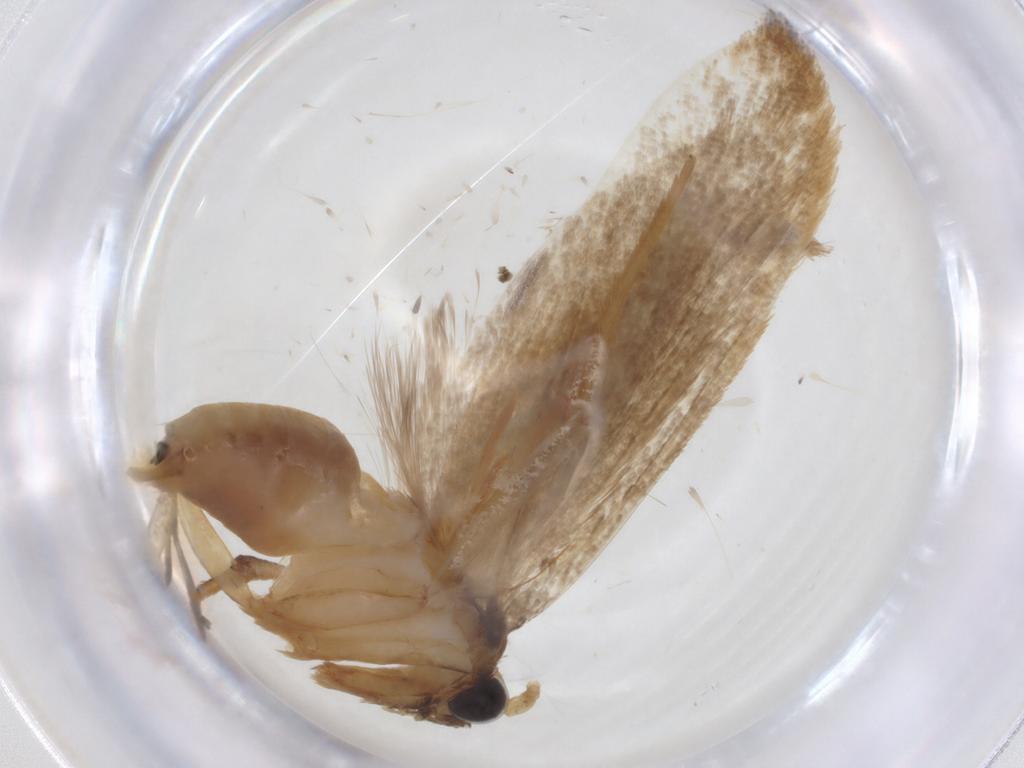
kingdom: Animalia
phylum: Arthropoda
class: Insecta
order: Lepidoptera
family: Erebidae
